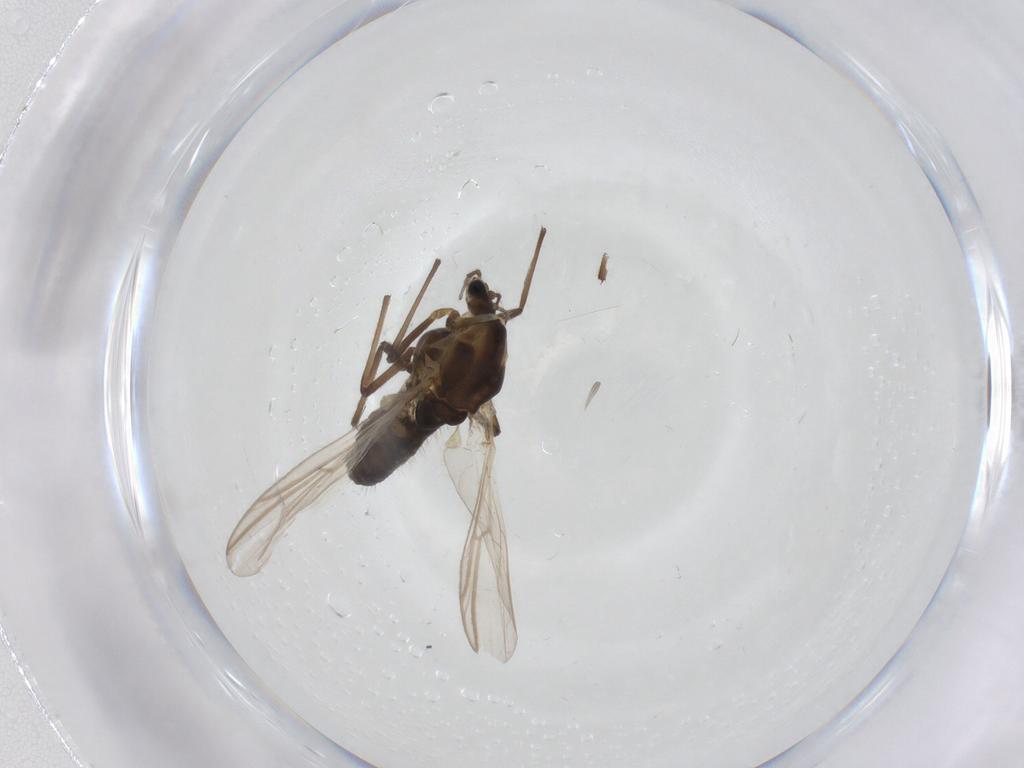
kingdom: Animalia
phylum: Arthropoda
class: Insecta
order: Diptera
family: Chironomidae
